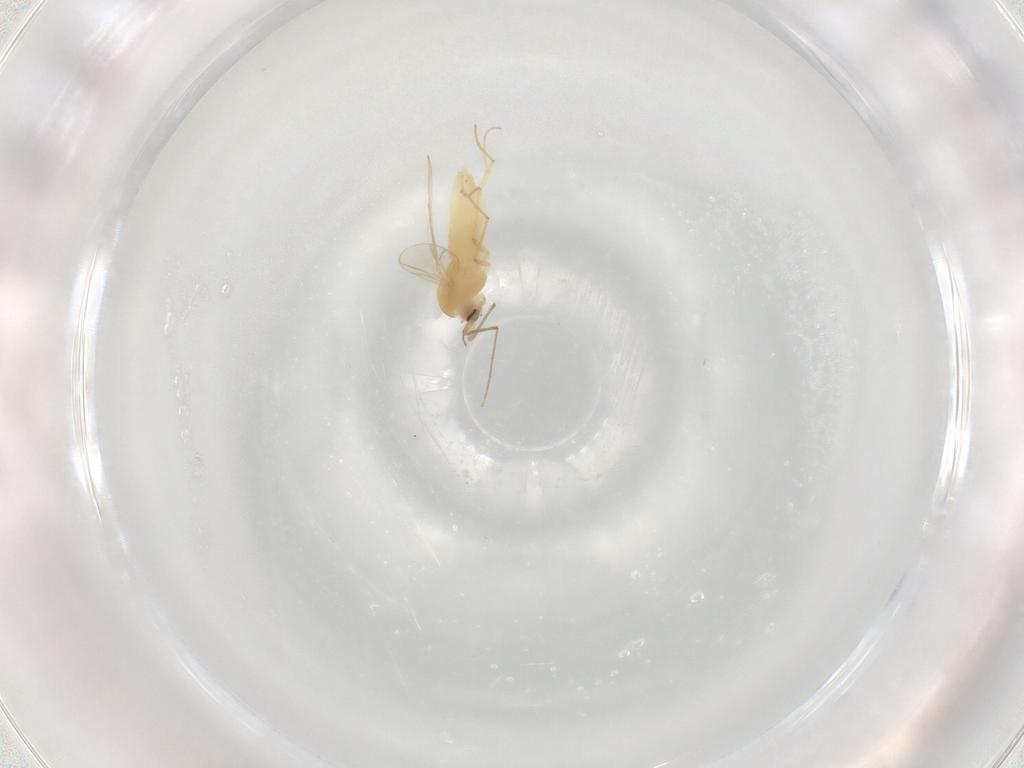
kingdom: Animalia
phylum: Arthropoda
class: Insecta
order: Diptera
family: Chironomidae
